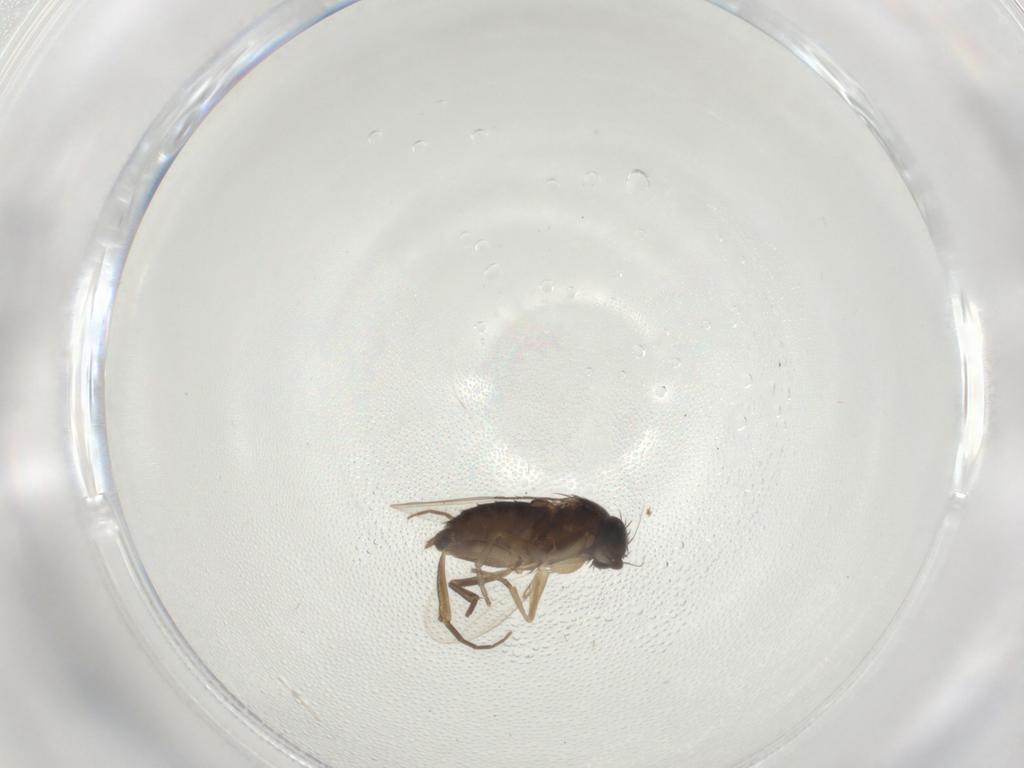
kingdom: Animalia
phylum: Arthropoda
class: Insecta
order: Diptera
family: Phoridae
